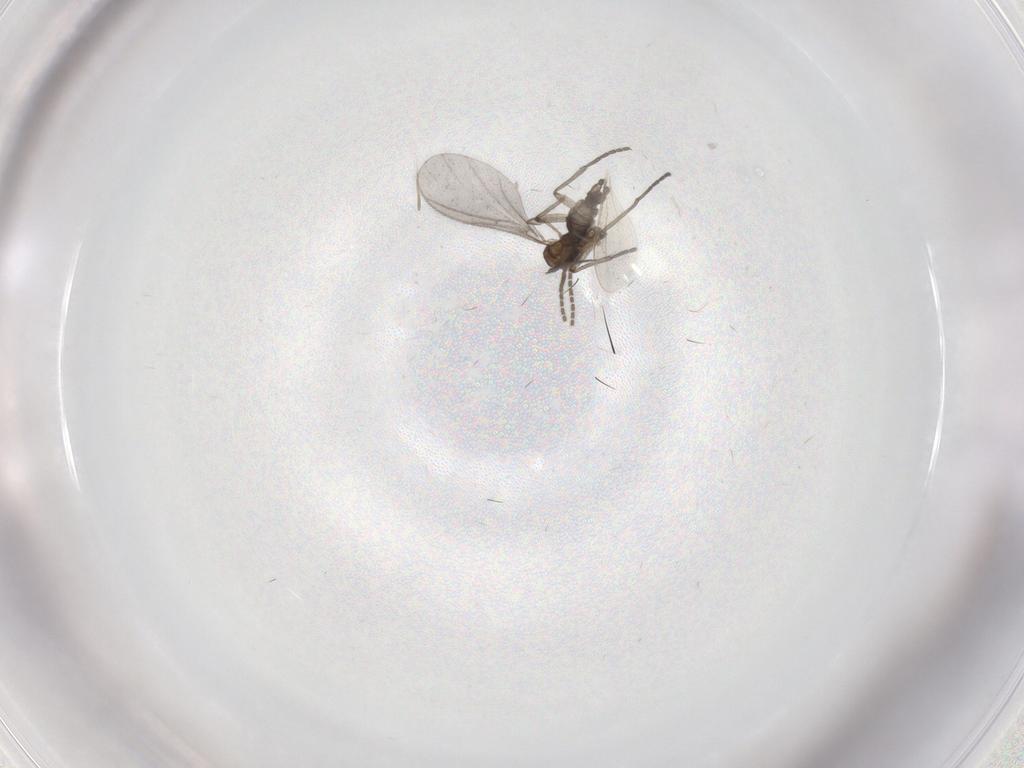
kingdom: Animalia
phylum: Arthropoda
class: Insecta
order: Diptera
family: Sciaridae
